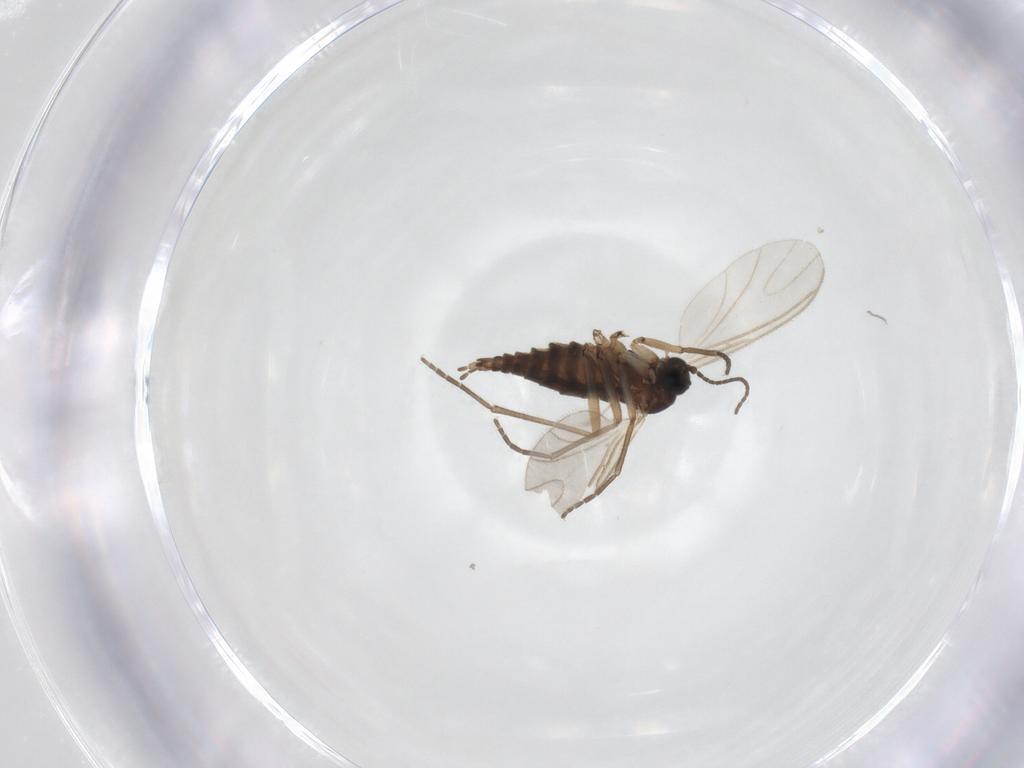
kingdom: Animalia
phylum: Arthropoda
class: Insecta
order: Diptera
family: Sciaridae
